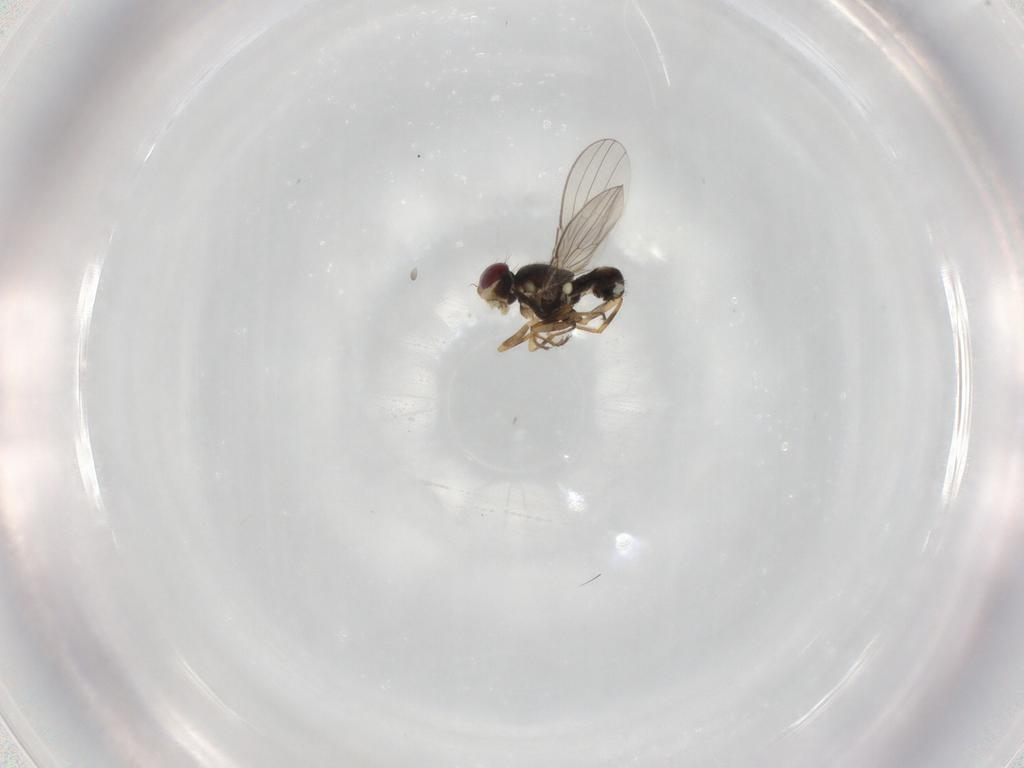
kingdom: Animalia
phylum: Arthropoda
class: Insecta
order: Diptera
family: Chyromyidae
